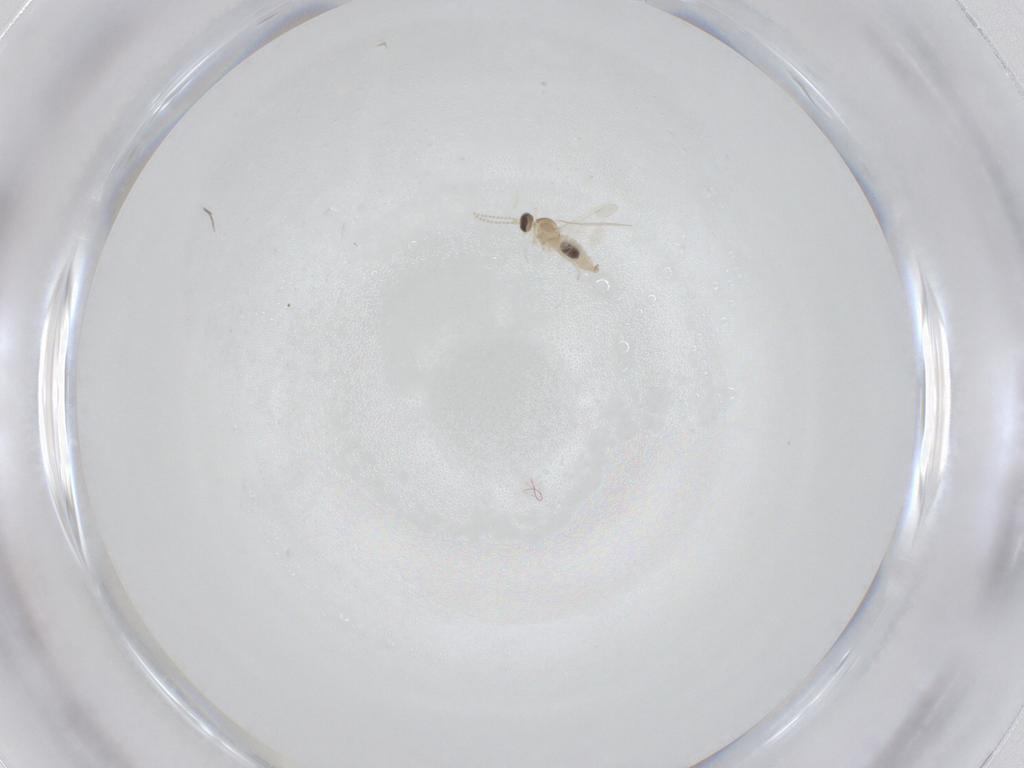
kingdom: Animalia
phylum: Arthropoda
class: Insecta
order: Diptera
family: Cecidomyiidae
